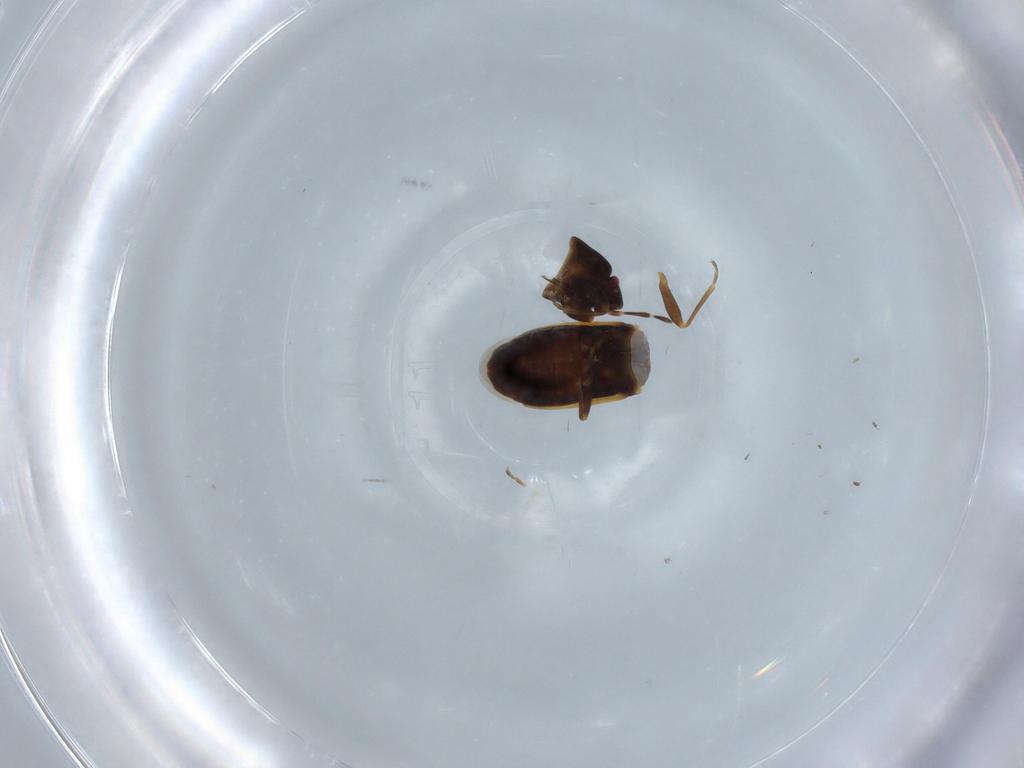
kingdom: Animalia
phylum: Arthropoda
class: Insecta
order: Hemiptera
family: Rhyparochromidae
